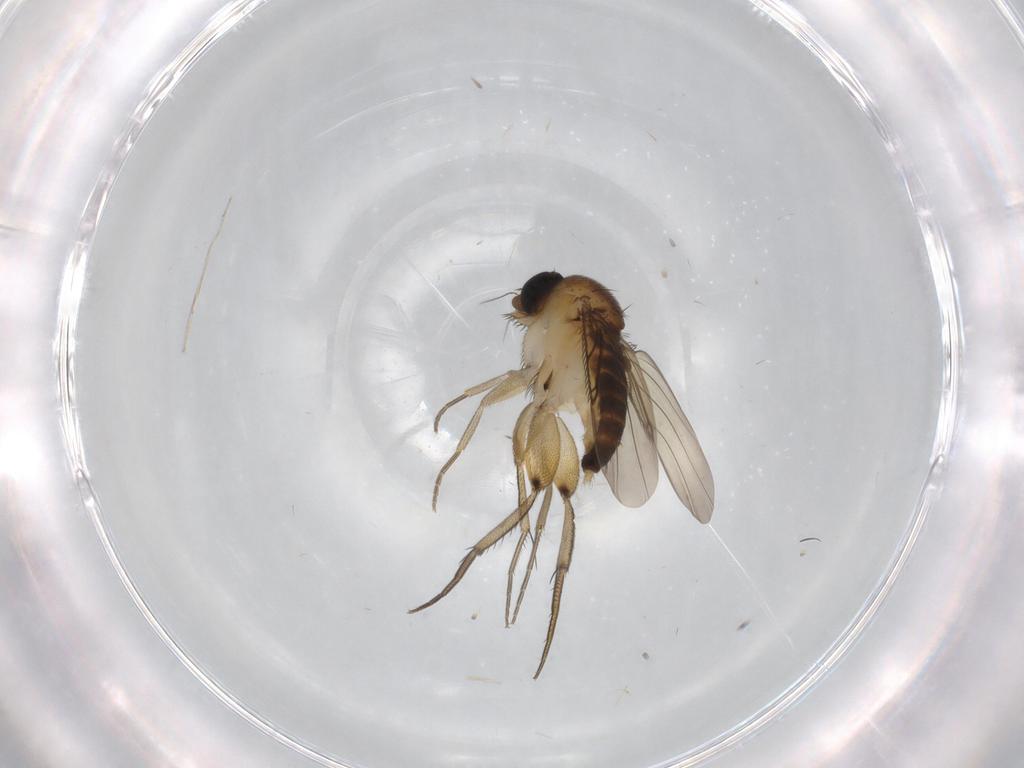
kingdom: Animalia
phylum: Arthropoda
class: Insecta
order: Diptera
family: Phoridae
